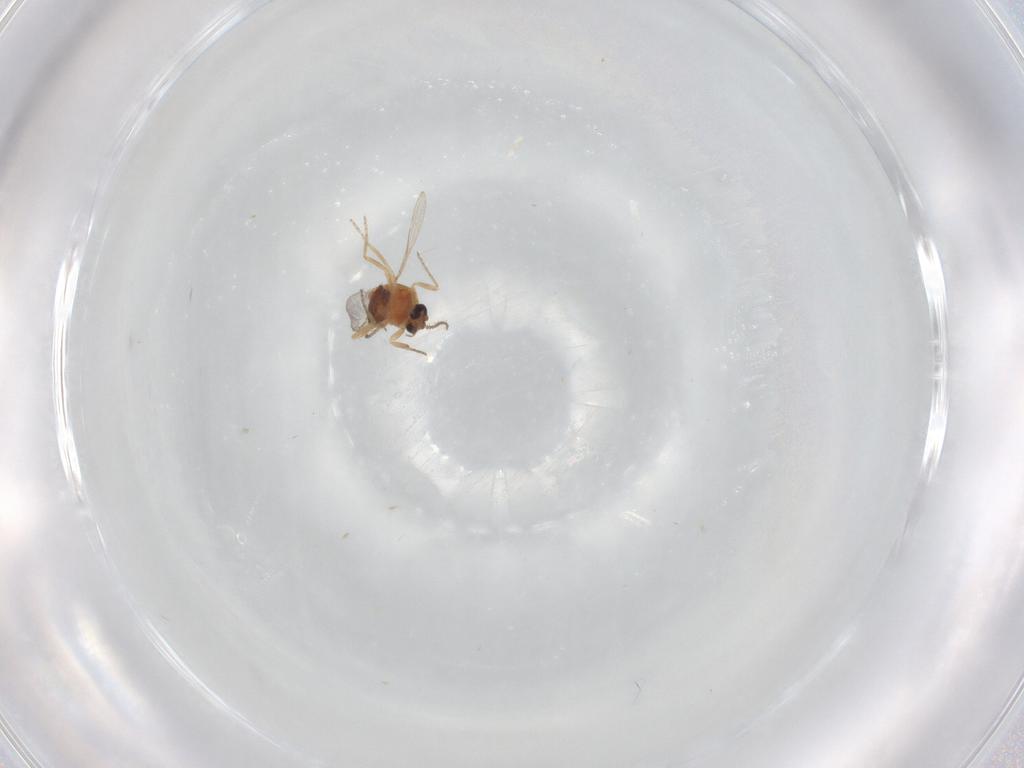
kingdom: Animalia
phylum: Arthropoda
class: Insecta
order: Diptera
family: Ceratopogonidae
